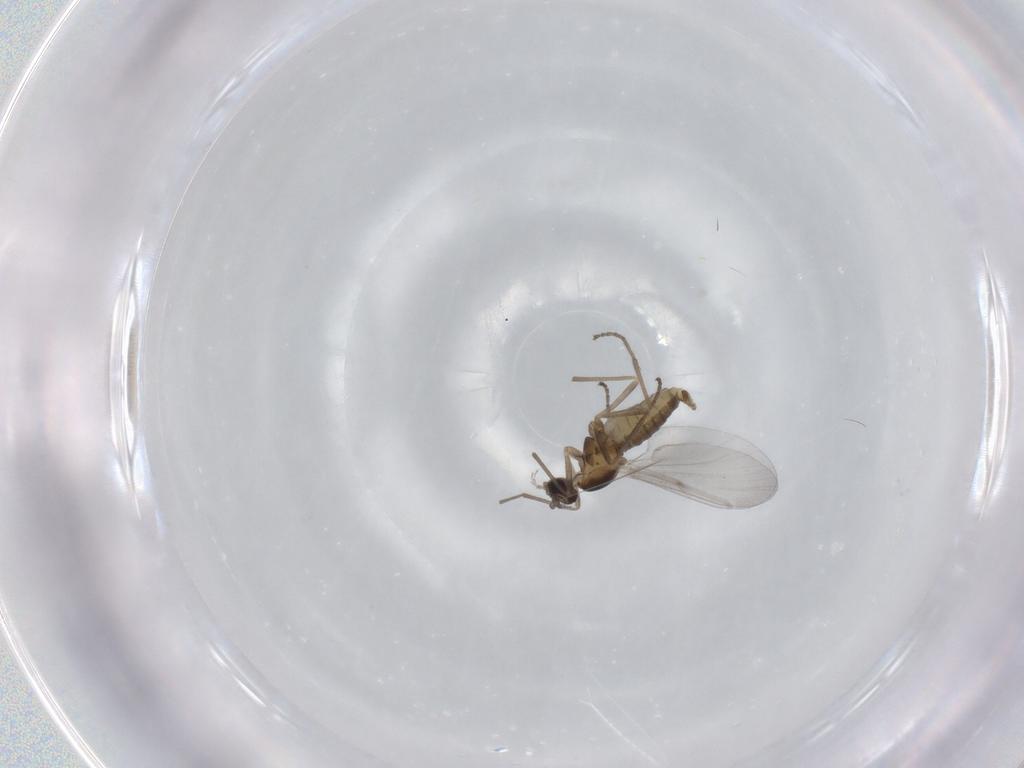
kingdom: Animalia
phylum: Arthropoda
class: Insecta
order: Diptera
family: Cecidomyiidae
